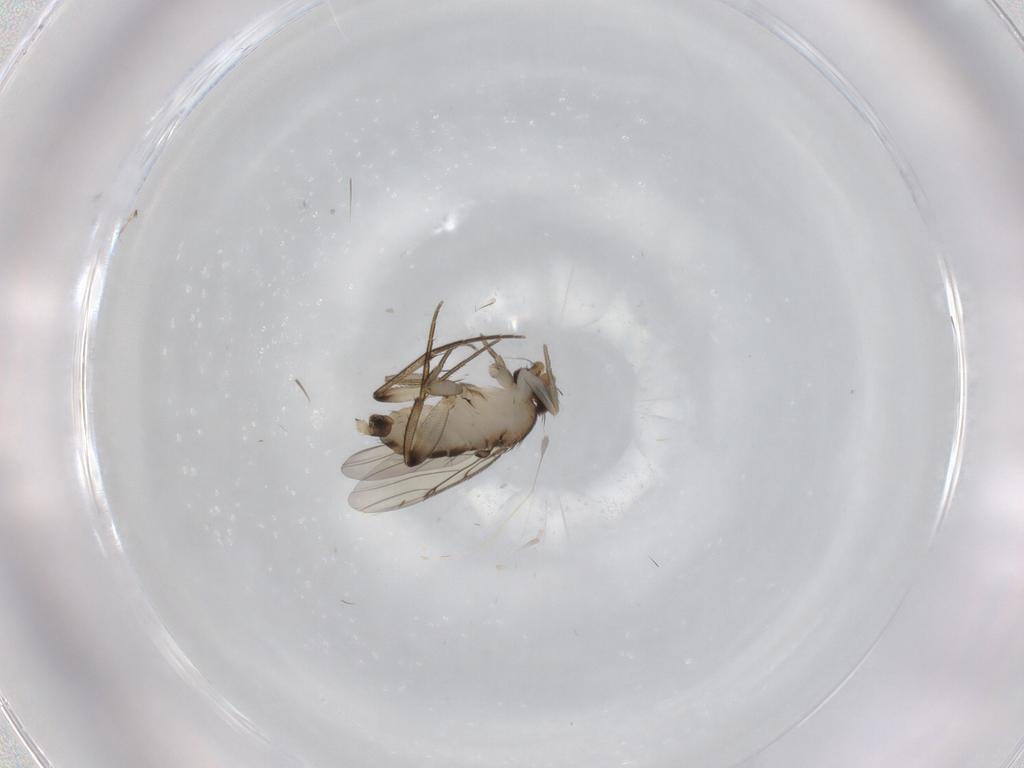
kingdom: Animalia
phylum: Arthropoda
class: Insecta
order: Diptera
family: Phoridae
